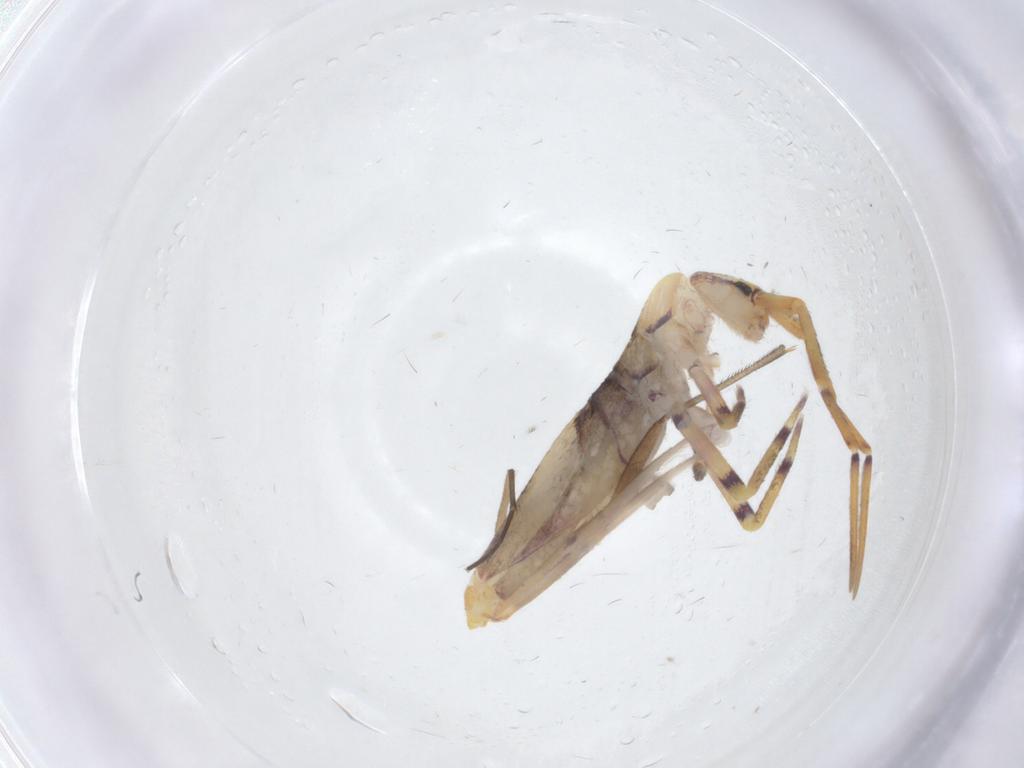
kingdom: Animalia
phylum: Arthropoda
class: Collembola
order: Entomobryomorpha
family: Entomobryidae
